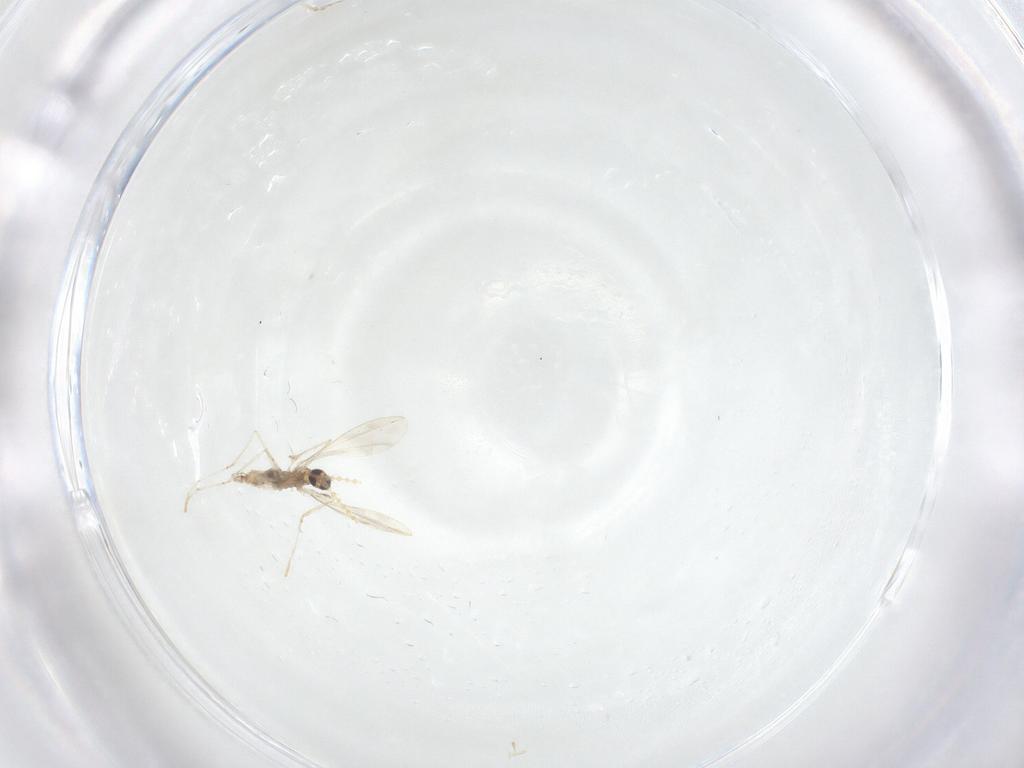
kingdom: Animalia
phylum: Arthropoda
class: Insecta
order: Diptera
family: Cecidomyiidae
